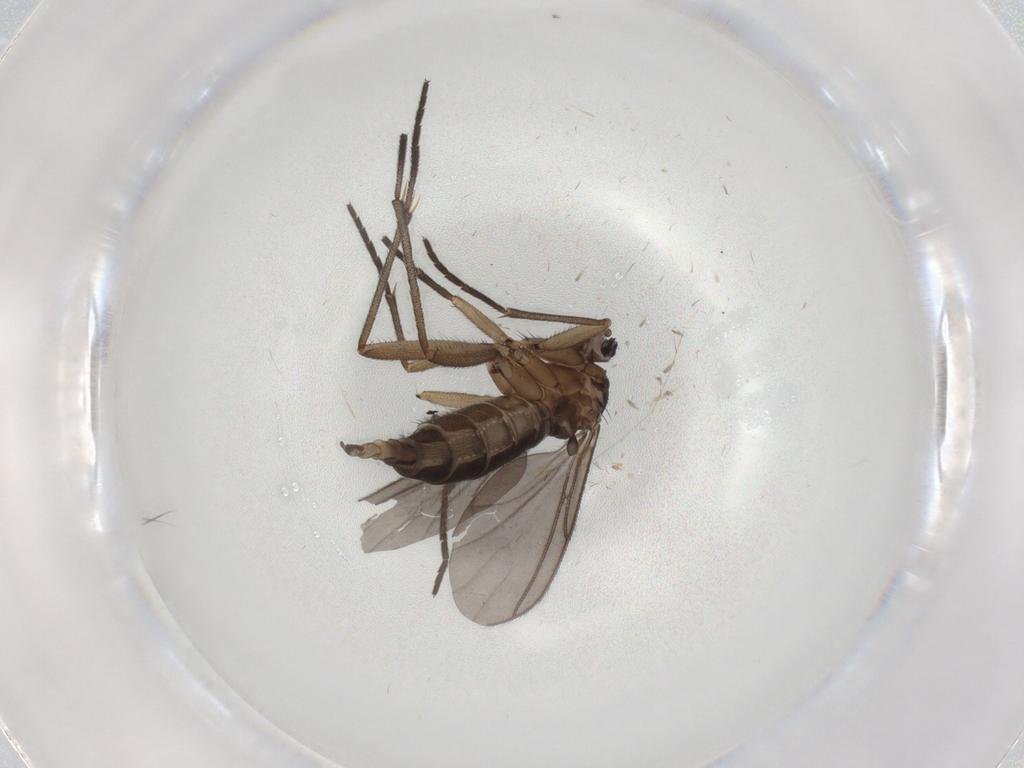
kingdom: Animalia
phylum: Arthropoda
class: Insecta
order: Diptera
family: Sciaridae
